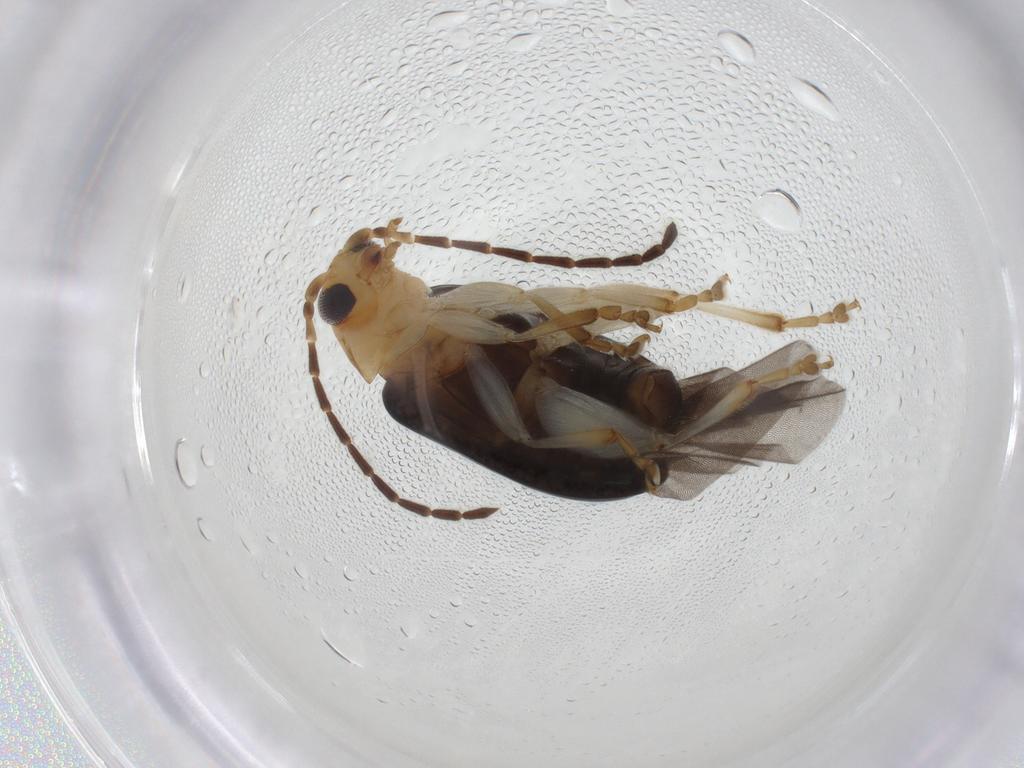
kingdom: Animalia
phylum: Arthropoda
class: Insecta
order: Coleoptera
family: Chrysomelidae
